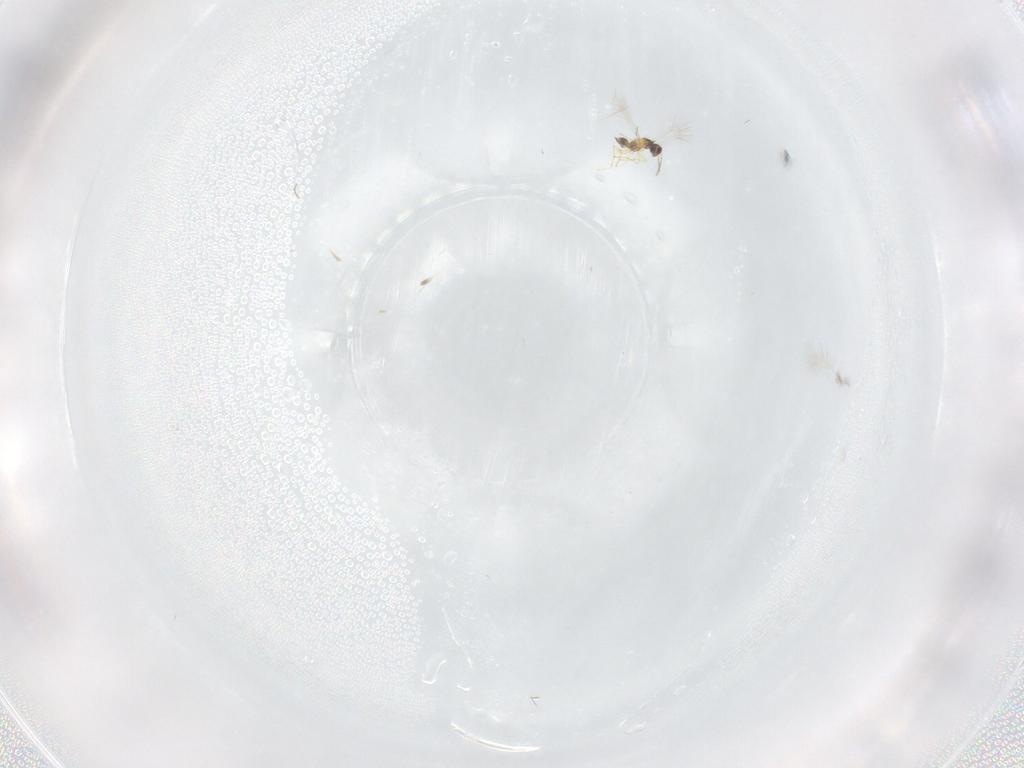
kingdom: Animalia
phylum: Arthropoda
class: Insecta
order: Hymenoptera
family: Mymaridae
